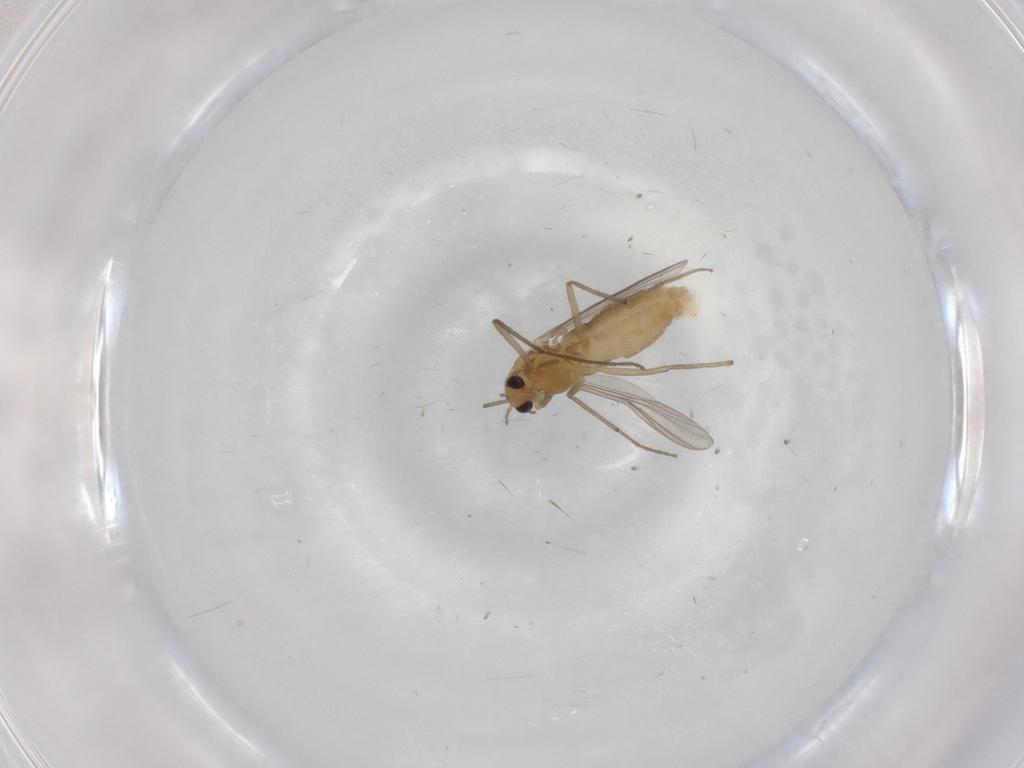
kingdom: Animalia
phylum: Arthropoda
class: Insecta
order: Diptera
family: Chironomidae
